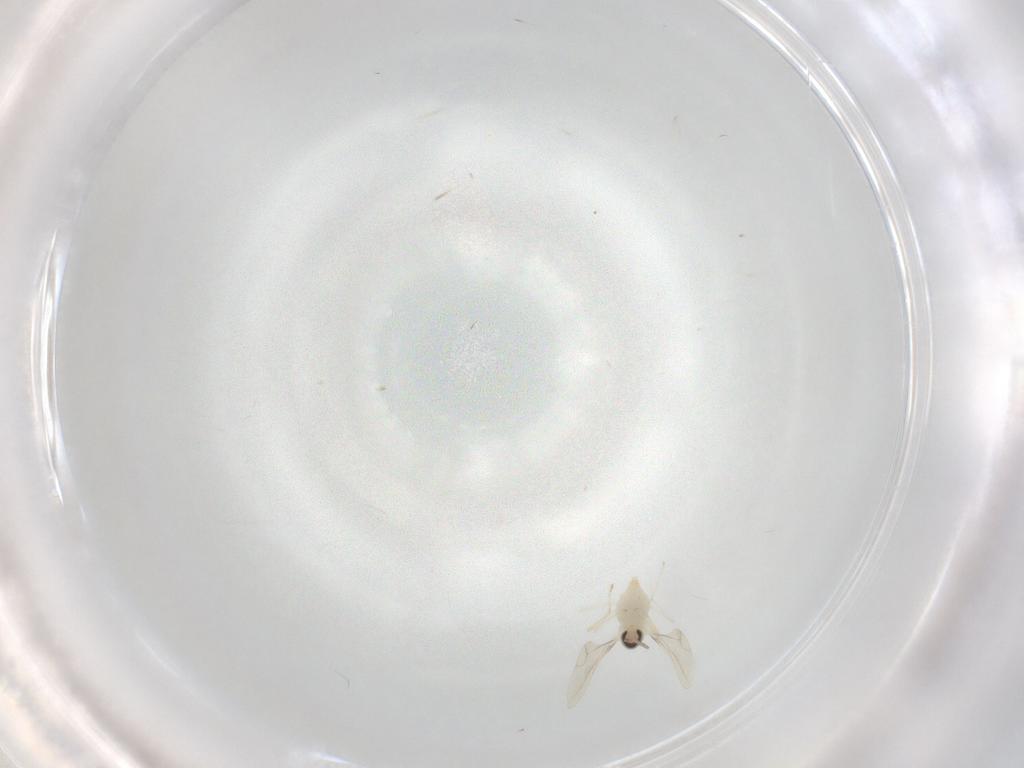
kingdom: Animalia
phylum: Arthropoda
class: Insecta
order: Diptera
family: Cecidomyiidae
